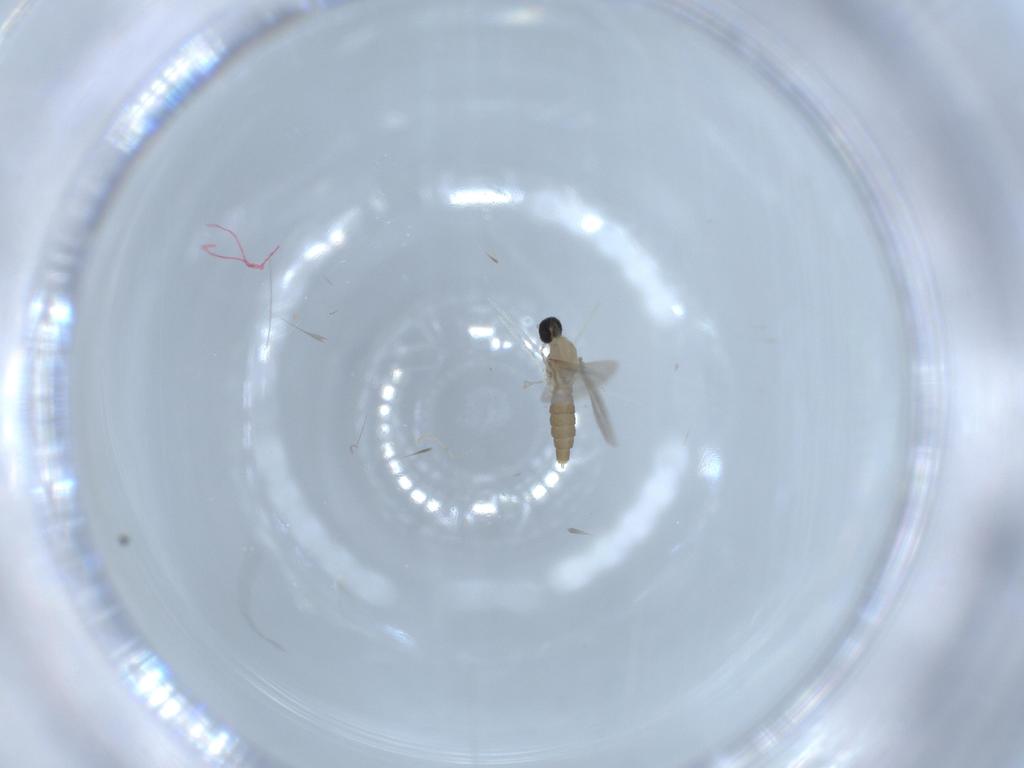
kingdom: Animalia
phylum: Arthropoda
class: Insecta
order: Diptera
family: Cecidomyiidae
